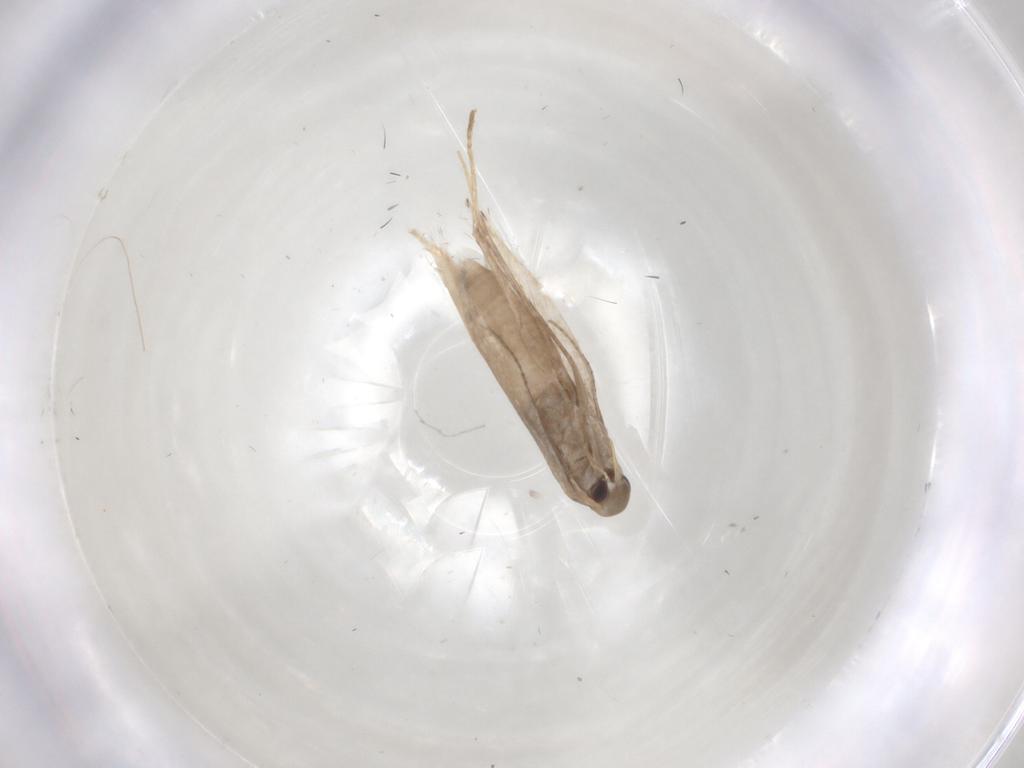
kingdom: Animalia
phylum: Arthropoda
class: Insecta
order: Lepidoptera
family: Gracillariidae
